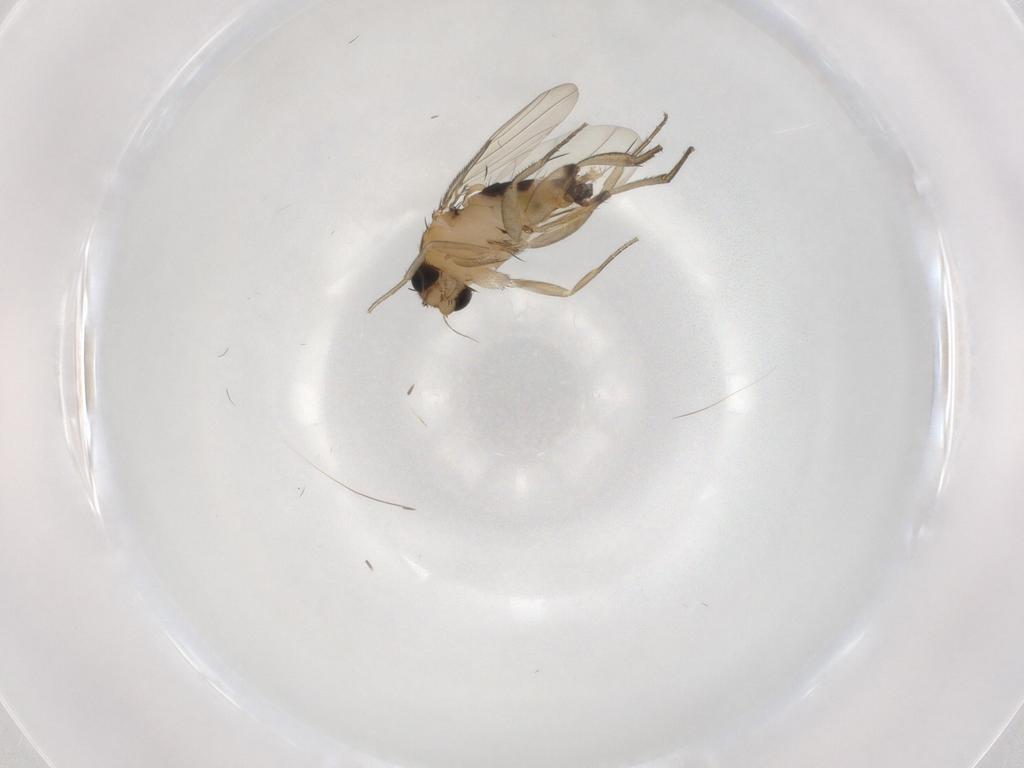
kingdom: Animalia
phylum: Arthropoda
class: Insecta
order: Diptera
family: Phoridae
